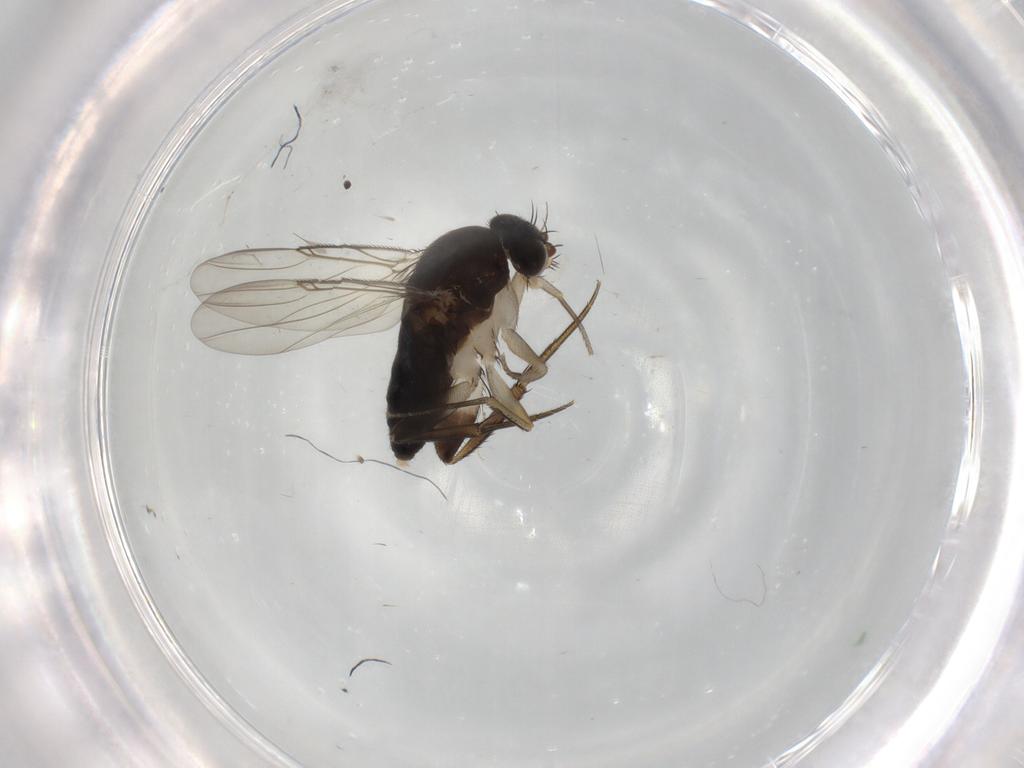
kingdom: Animalia
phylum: Arthropoda
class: Insecta
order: Diptera
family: Phoridae
